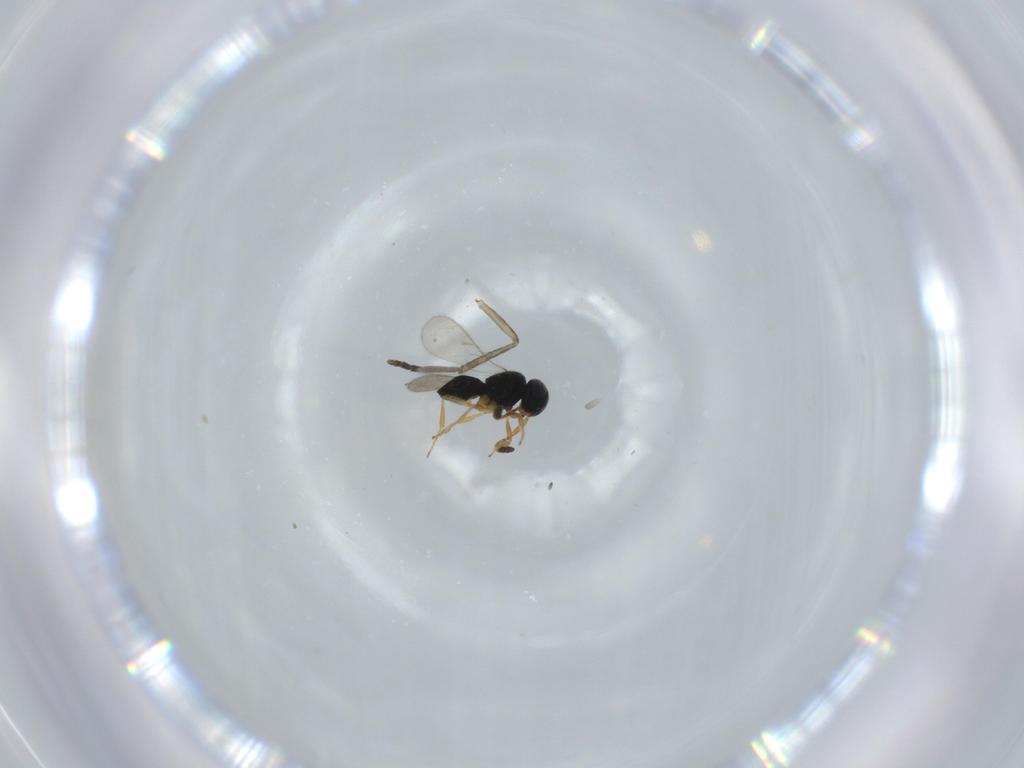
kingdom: Animalia
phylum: Arthropoda
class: Insecta
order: Hymenoptera
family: Scelionidae
